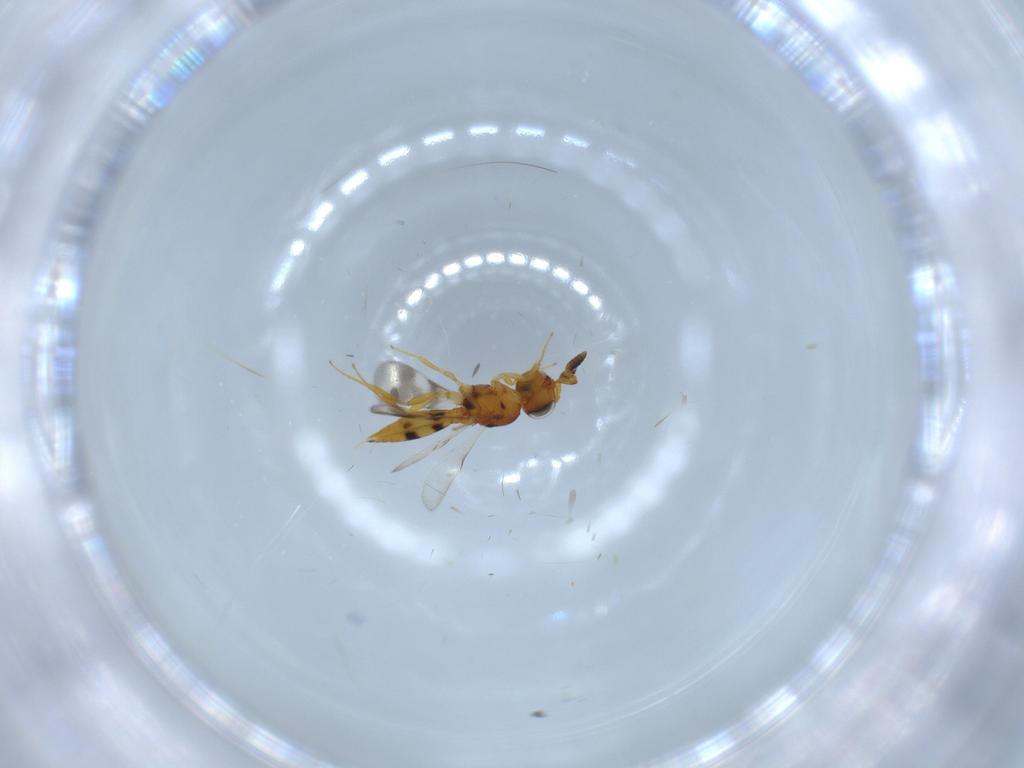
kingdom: Animalia
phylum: Arthropoda
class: Insecta
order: Hymenoptera
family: Scelionidae
